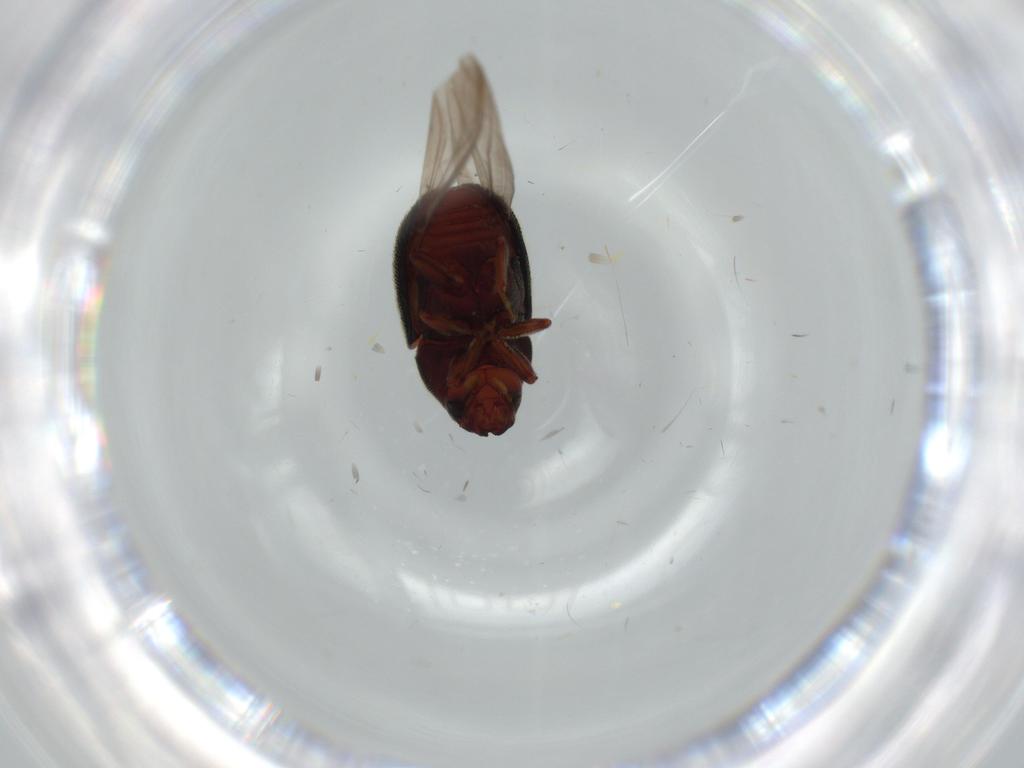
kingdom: Animalia
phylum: Arthropoda
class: Insecta
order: Coleoptera
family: Curculionidae
